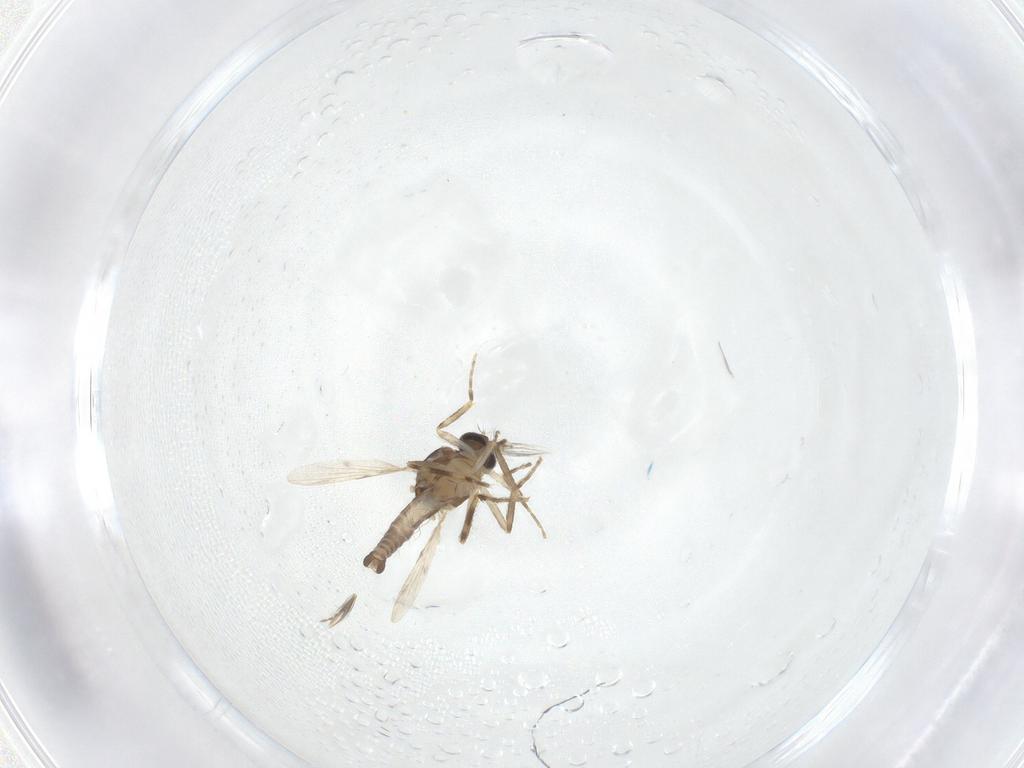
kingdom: Animalia
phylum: Arthropoda
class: Insecta
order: Diptera
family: Ceratopogonidae
